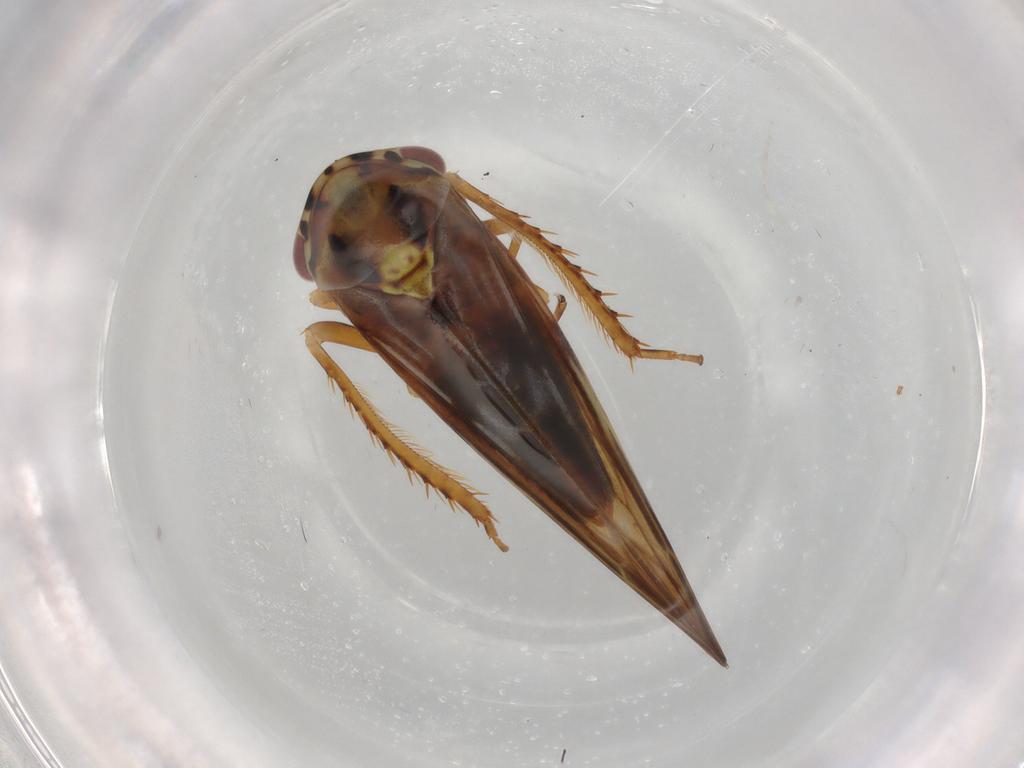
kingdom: Animalia
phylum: Arthropoda
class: Insecta
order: Hemiptera
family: Cicadellidae
